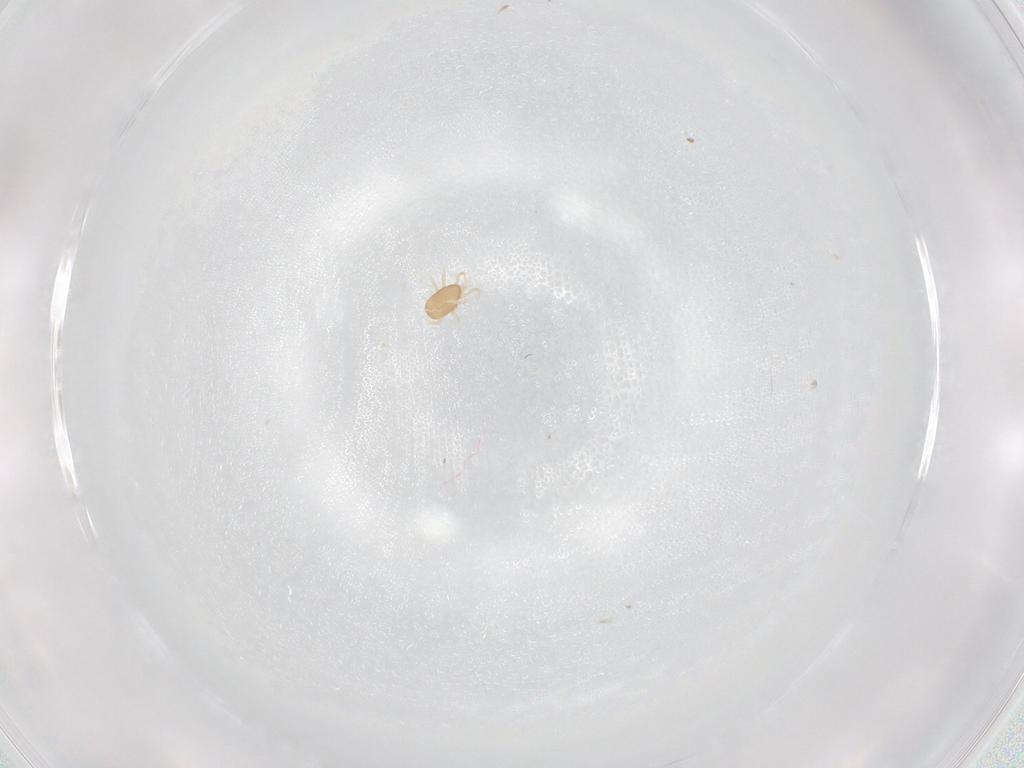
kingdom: Animalia
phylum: Arthropoda
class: Arachnida
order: Mesostigmata
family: Ascidae
